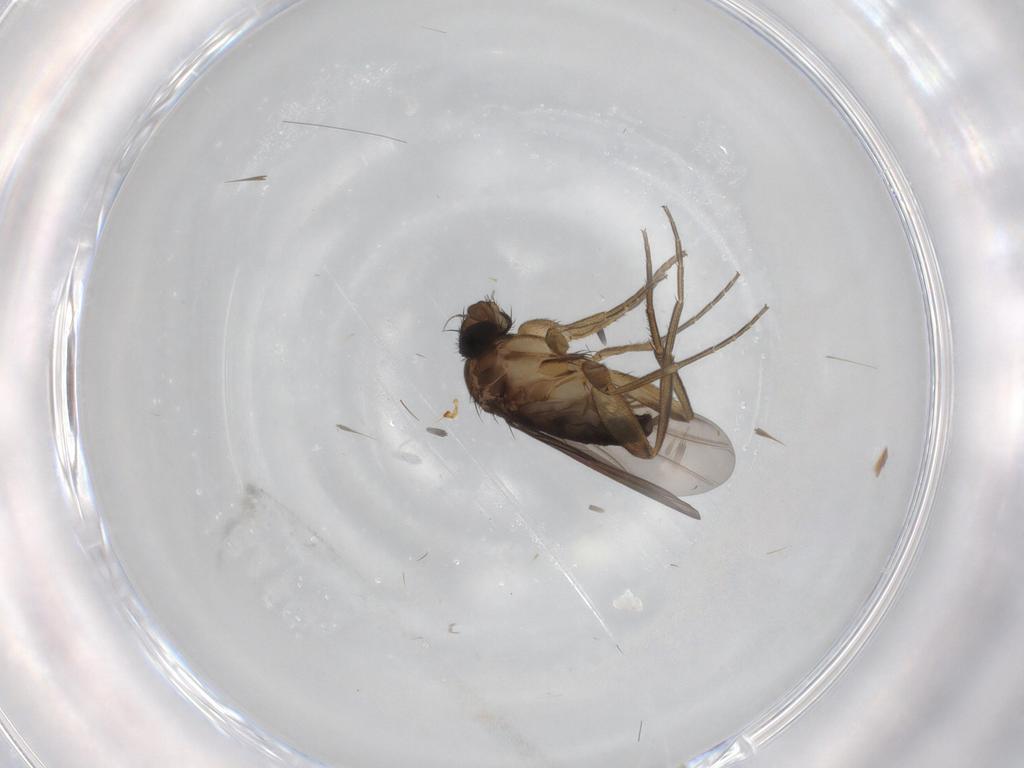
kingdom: Animalia
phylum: Arthropoda
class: Insecta
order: Diptera
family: Phoridae
